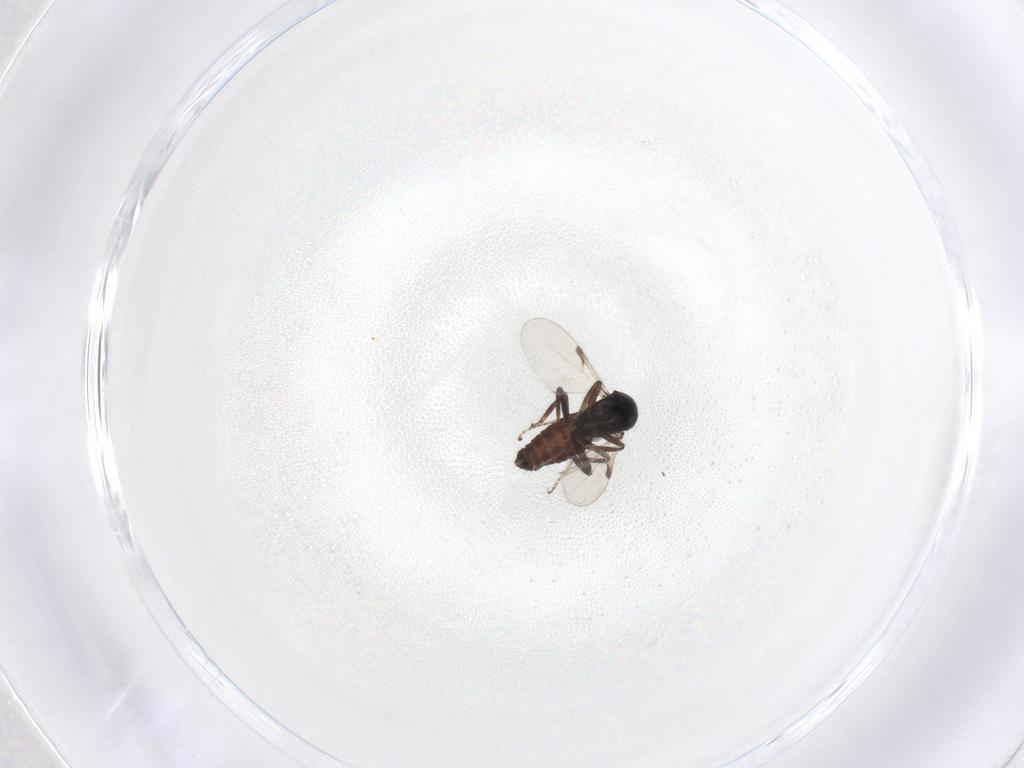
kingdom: Animalia
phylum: Arthropoda
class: Insecta
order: Diptera
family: Ceratopogonidae
